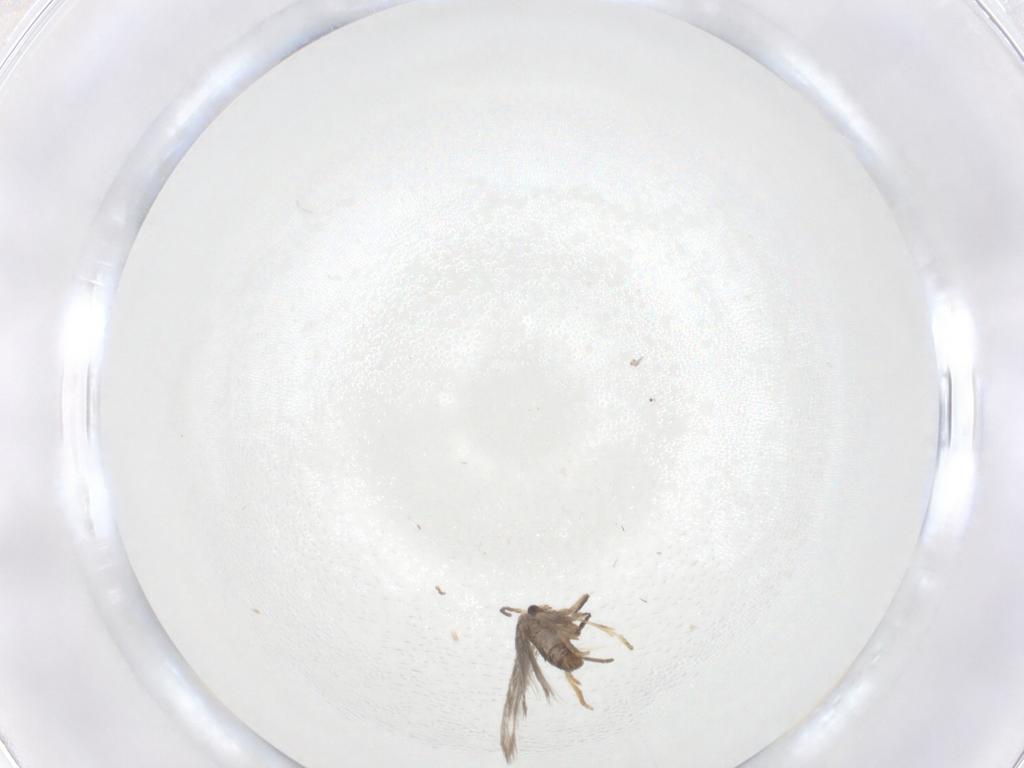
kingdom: Animalia
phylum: Arthropoda
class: Insecta
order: Lepidoptera
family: Nepticulidae
